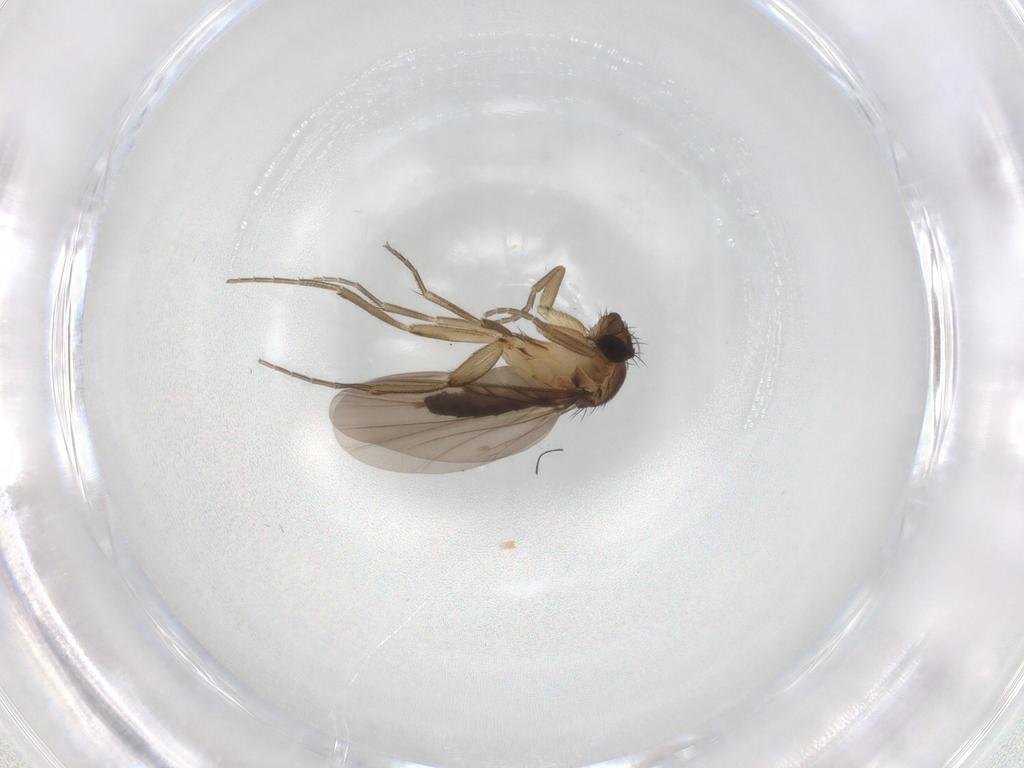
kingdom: Animalia
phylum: Arthropoda
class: Insecta
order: Diptera
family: Phoridae
